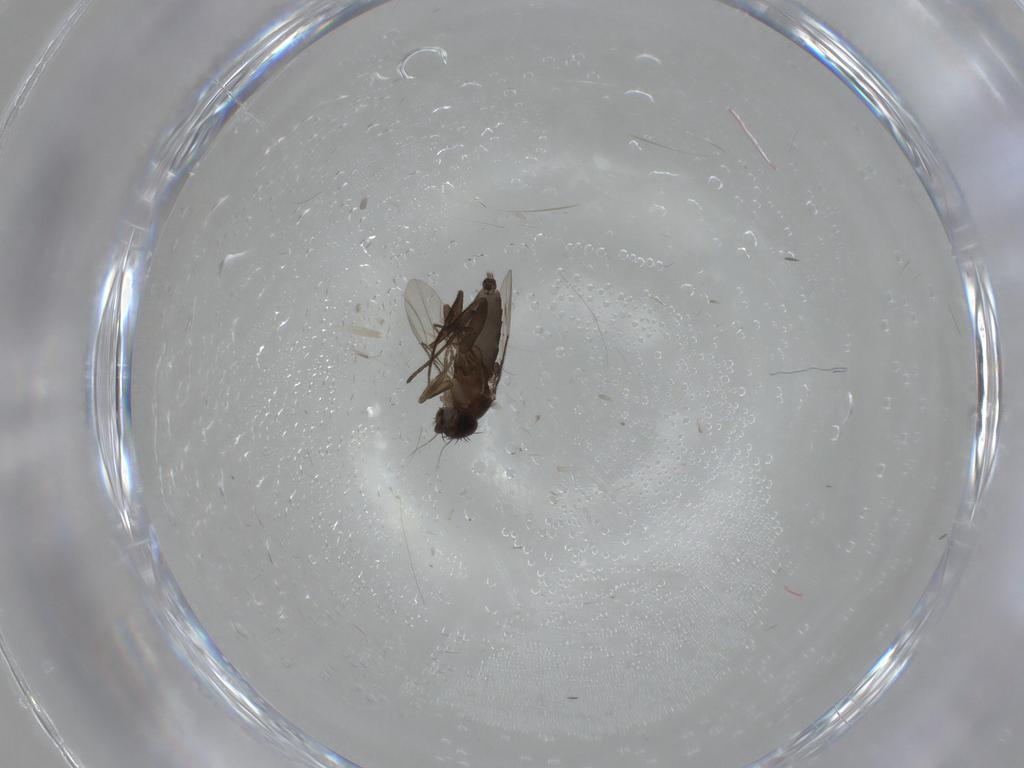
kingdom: Animalia
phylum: Arthropoda
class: Insecta
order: Diptera
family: Sciaridae
